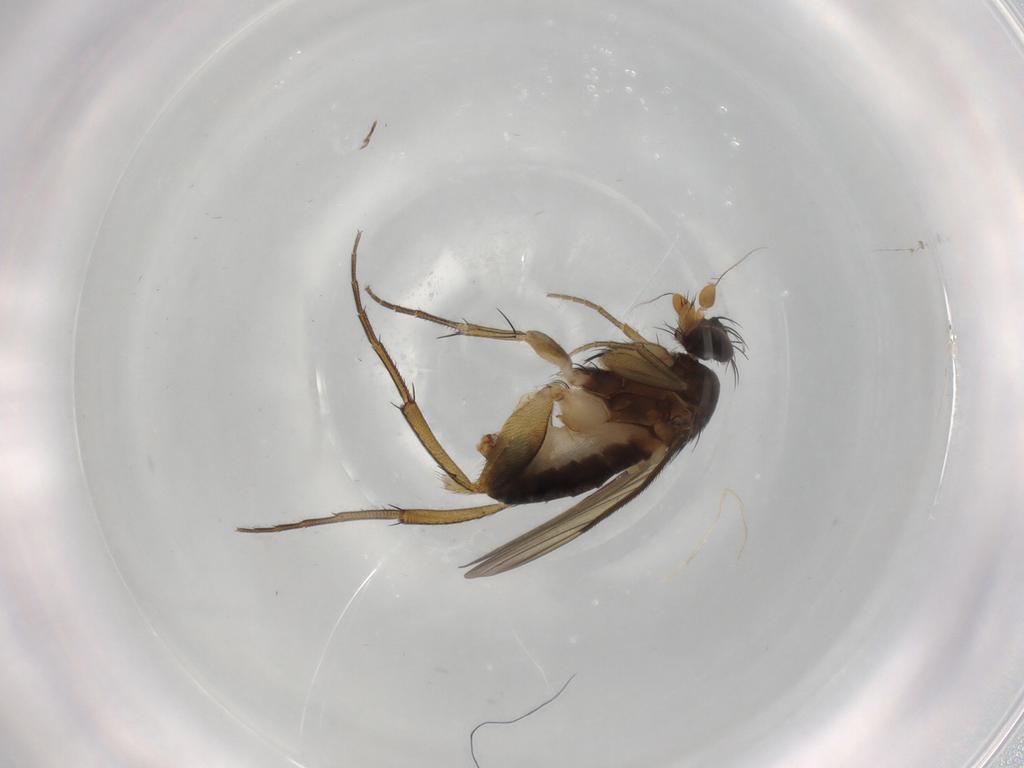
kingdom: Animalia
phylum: Arthropoda
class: Insecta
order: Diptera
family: Phoridae
